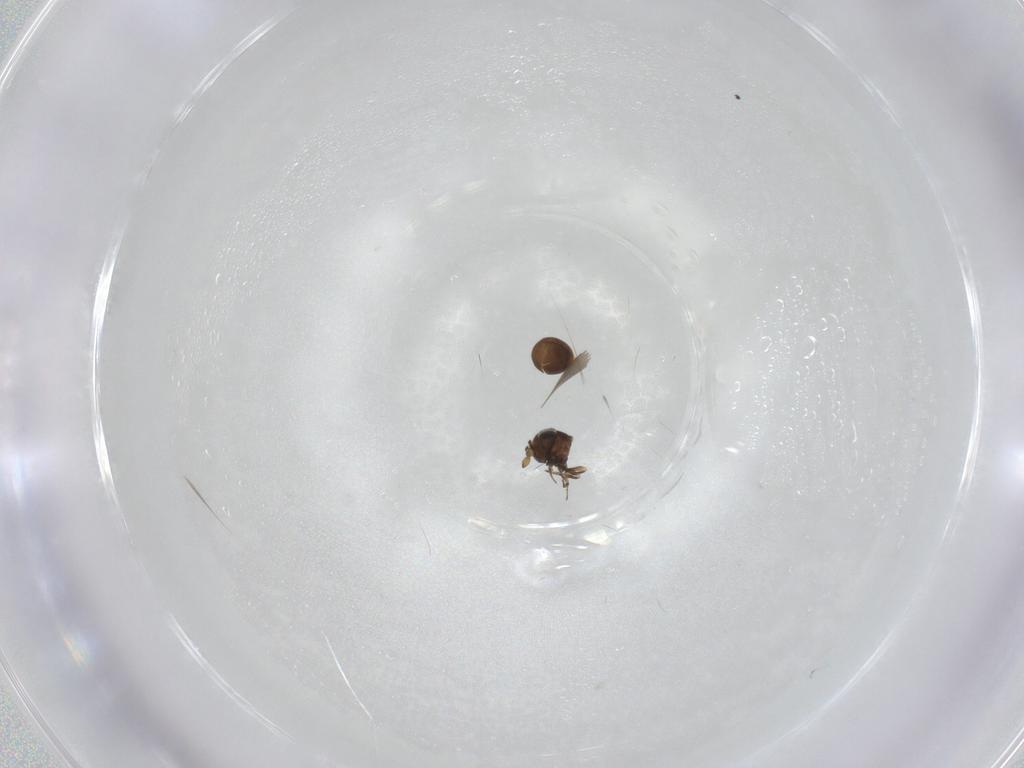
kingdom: Animalia
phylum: Arthropoda
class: Insecta
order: Hymenoptera
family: Scelionidae
